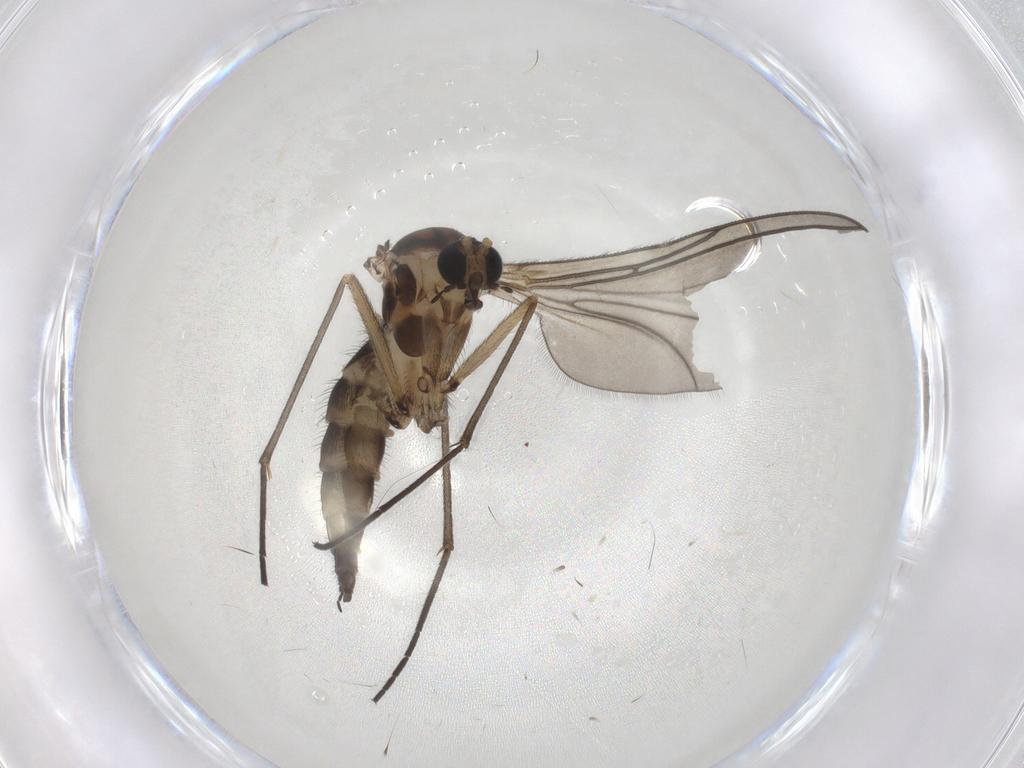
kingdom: Animalia
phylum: Arthropoda
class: Insecta
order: Diptera
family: Sciaridae
